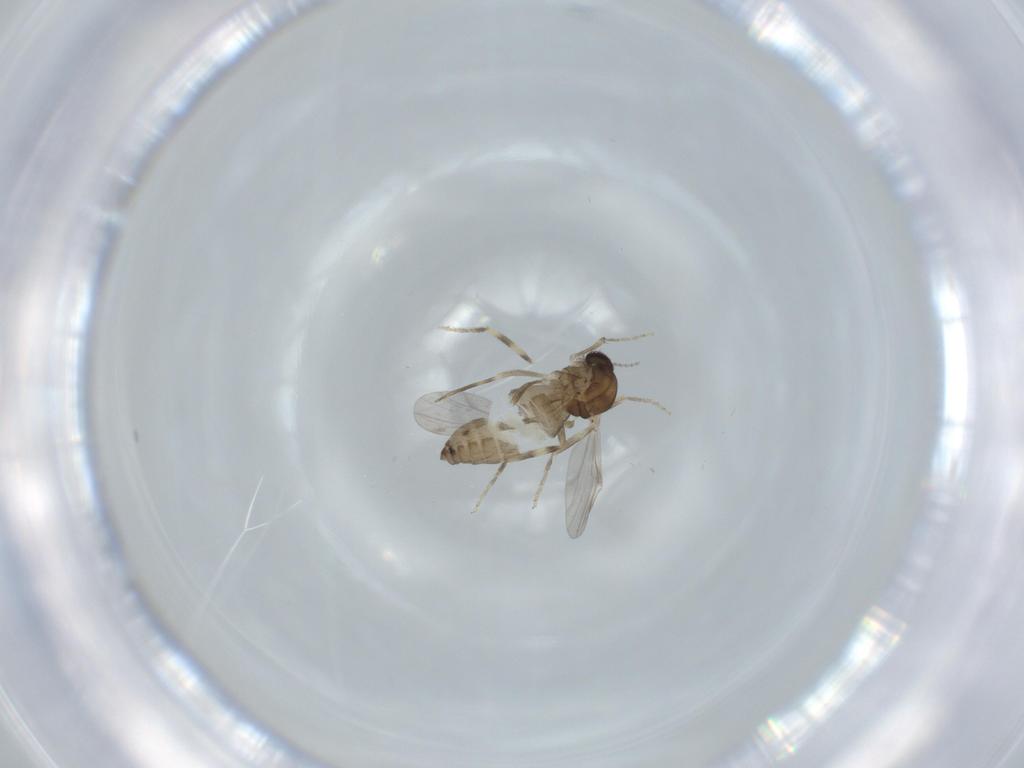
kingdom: Animalia
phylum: Arthropoda
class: Insecta
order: Diptera
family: Ceratopogonidae
